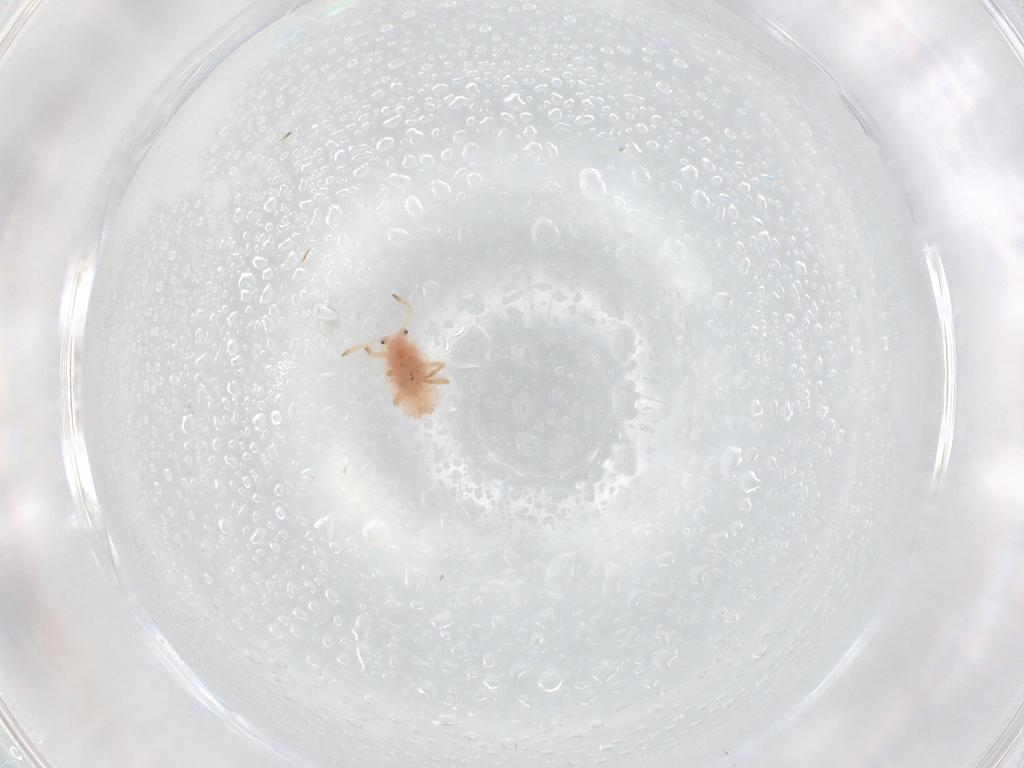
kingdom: Animalia
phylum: Arthropoda
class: Insecta
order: Hemiptera
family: Coccoidea_incertae_sedis
